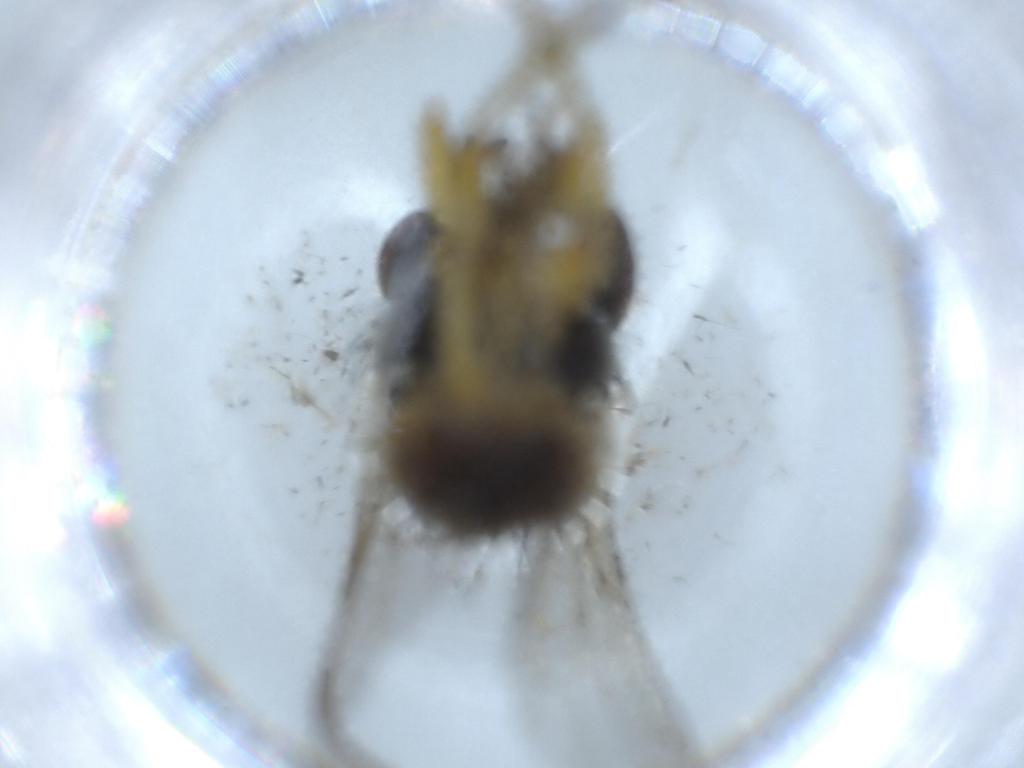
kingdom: Animalia
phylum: Arthropoda
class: Insecta
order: Diptera
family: Muscidae
